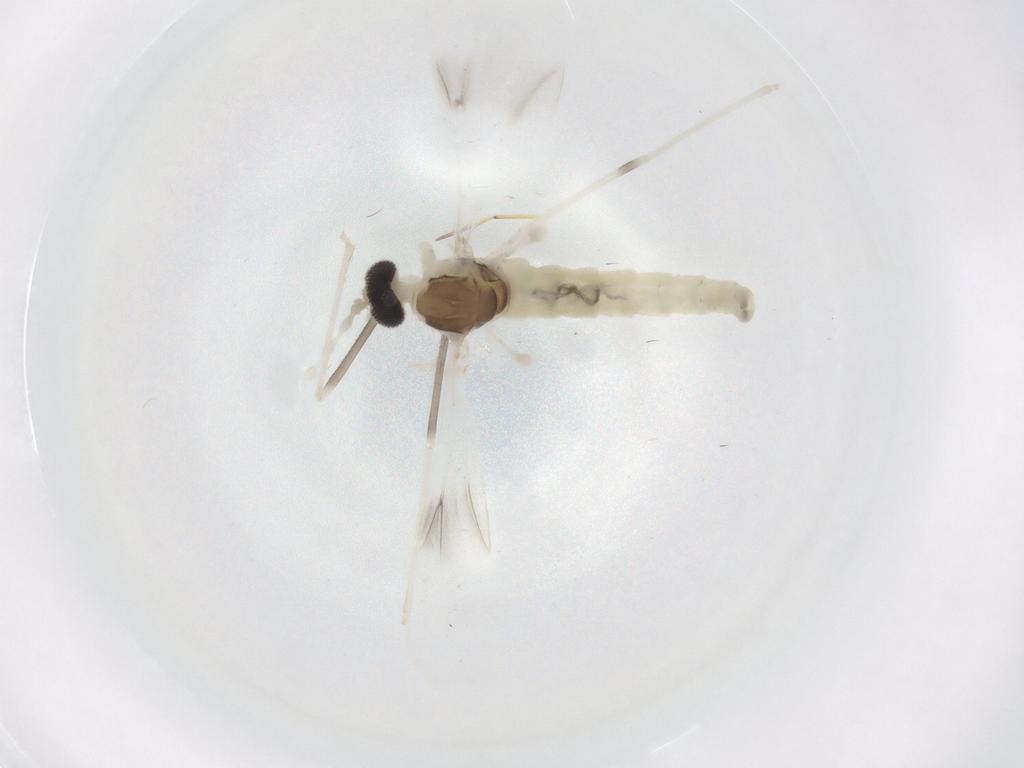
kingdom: Animalia
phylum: Arthropoda
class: Insecta
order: Diptera
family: Cecidomyiidae
